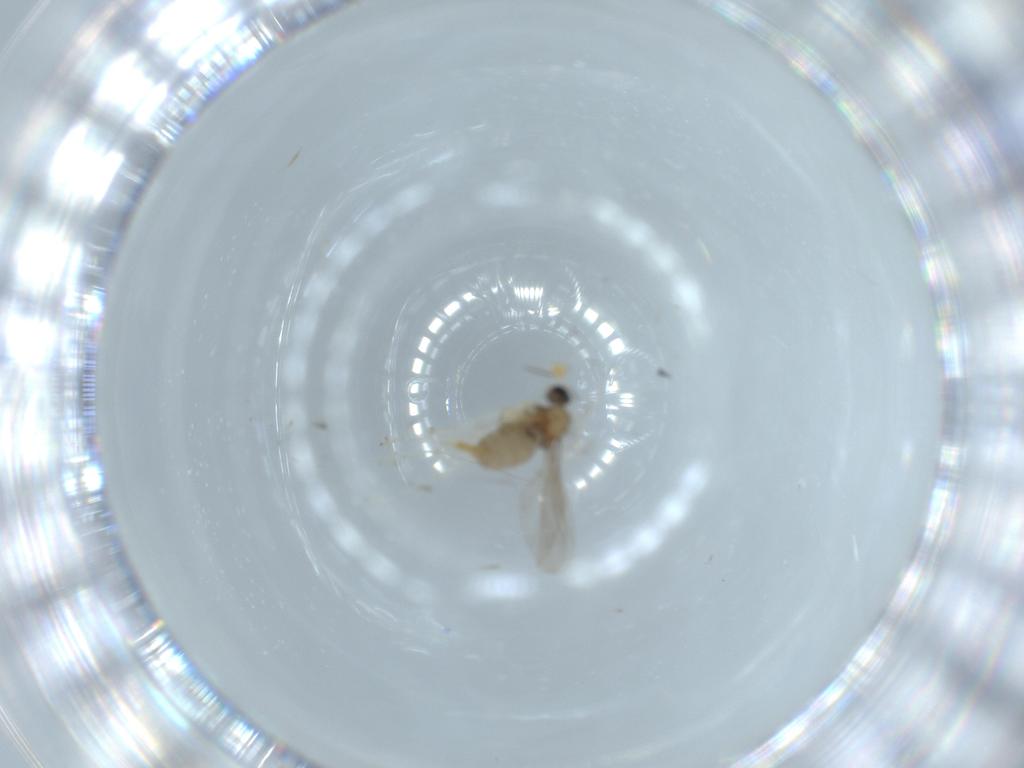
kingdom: Animalia
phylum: Arthropoda
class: Insecta
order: Diptera
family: Cecidomyiidae
